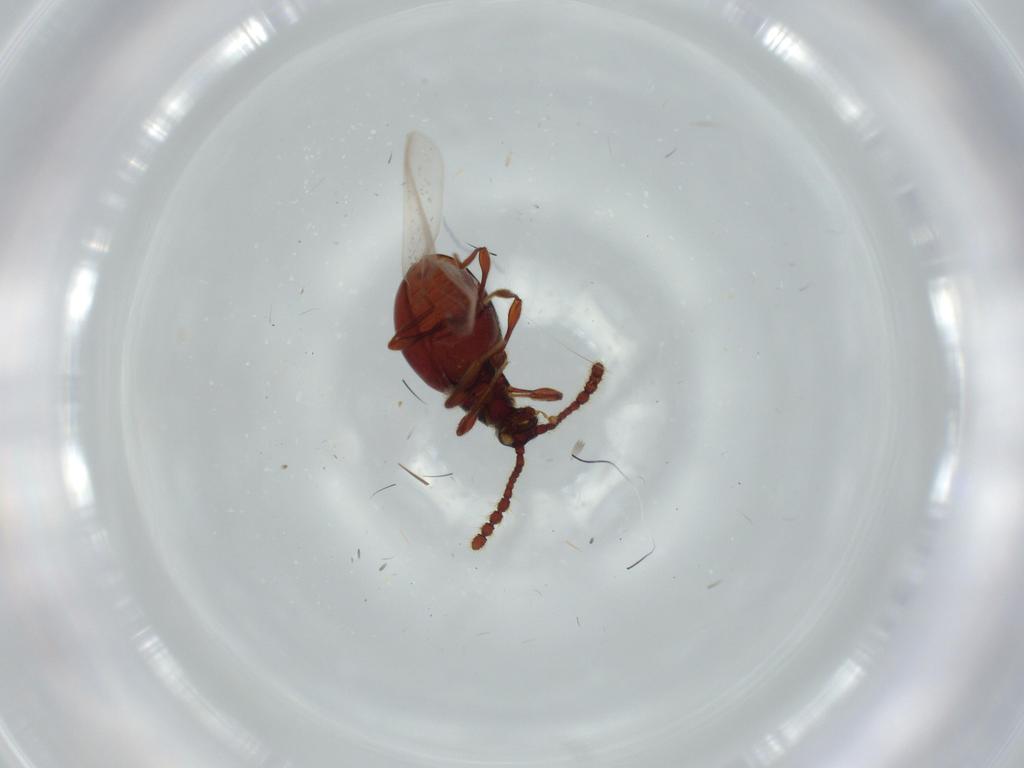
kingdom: Animalia
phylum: Arthropoda
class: Insecta
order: Coleoptera
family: Staphylinidae
